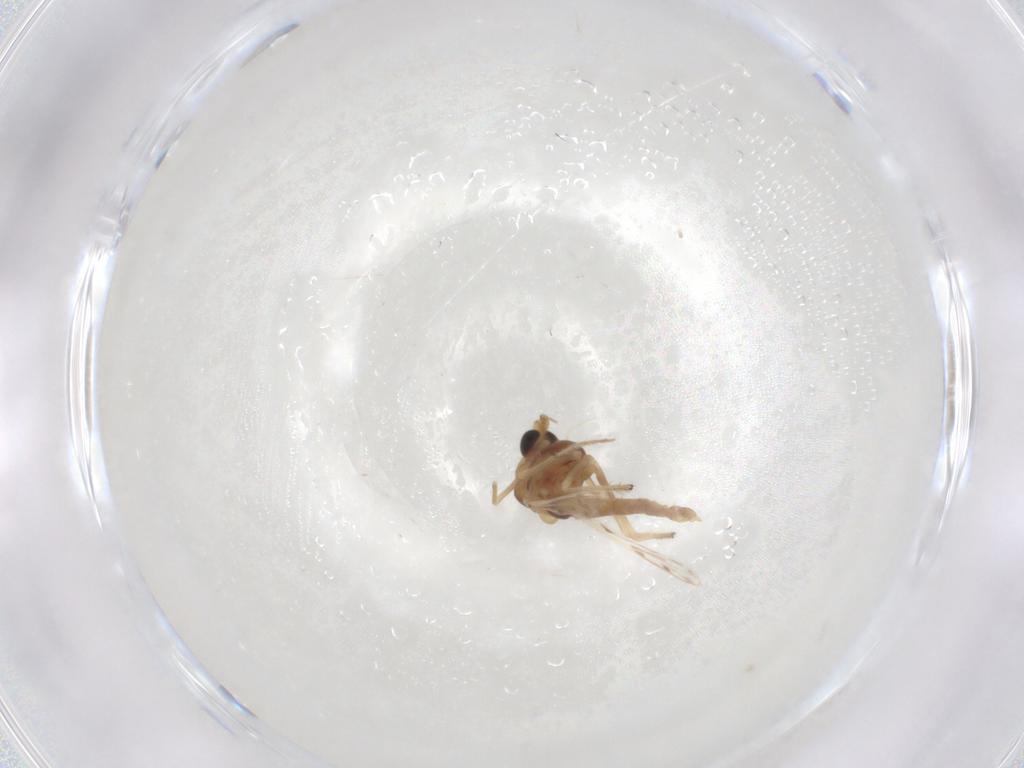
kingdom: Animalia
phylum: Arthropoda
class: Insecta
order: Diptera
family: Chironomidae
